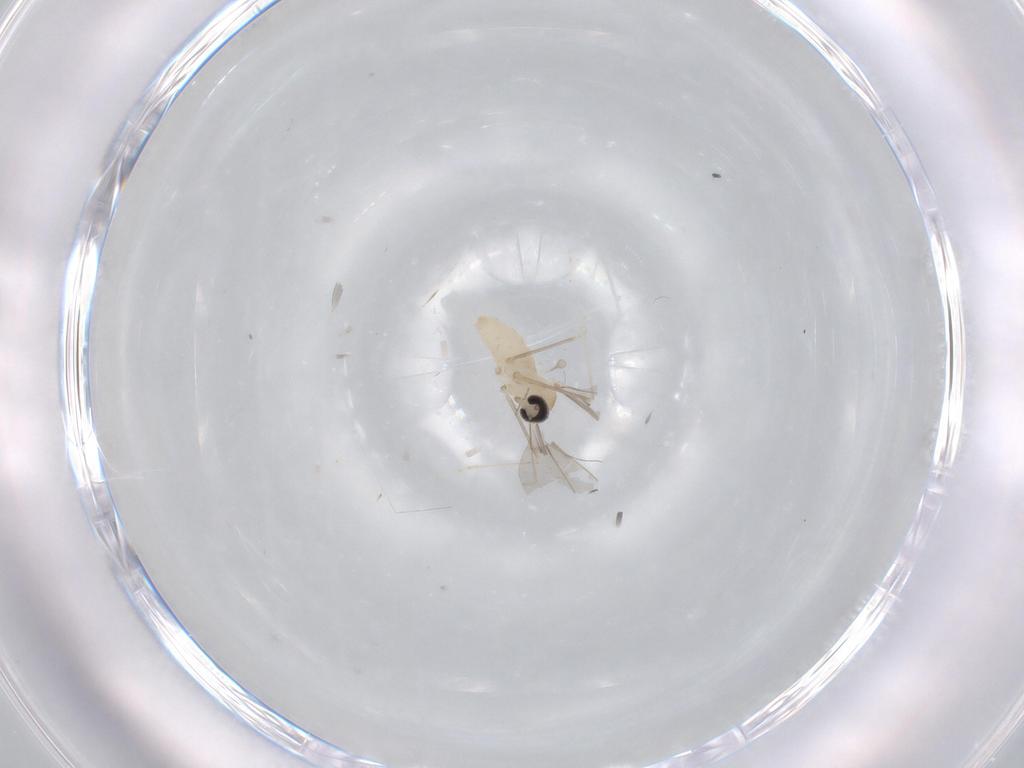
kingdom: Animalia
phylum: Arthropoda
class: Insecta
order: Diptera
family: Cecidomyiidae
